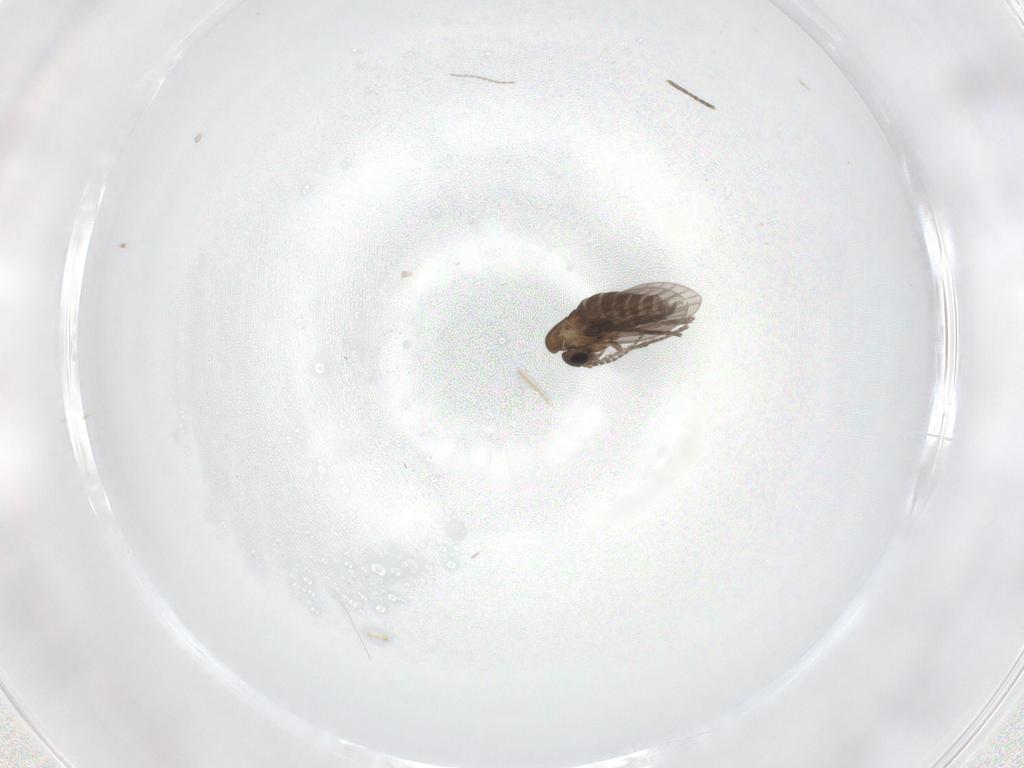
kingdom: Animalia
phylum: Arthropoda
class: Insecta
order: Diptera
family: Cecidomyiidae
